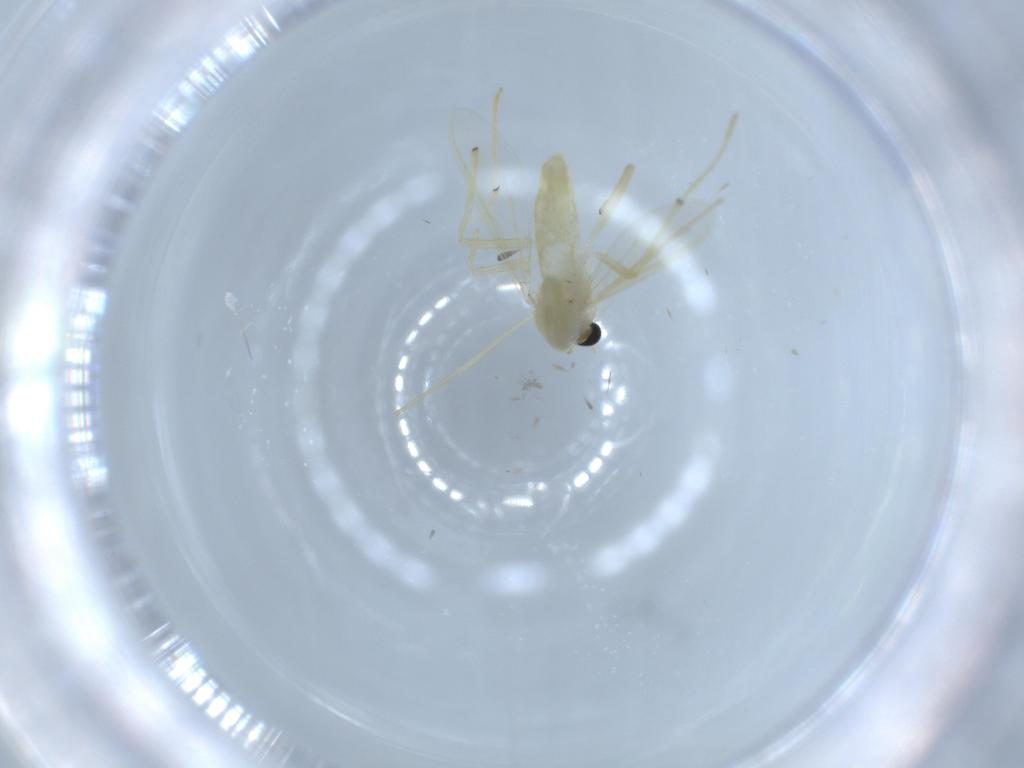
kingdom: Animalia
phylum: Arthropoda
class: Insecta
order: Diptera
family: Chironomidae
